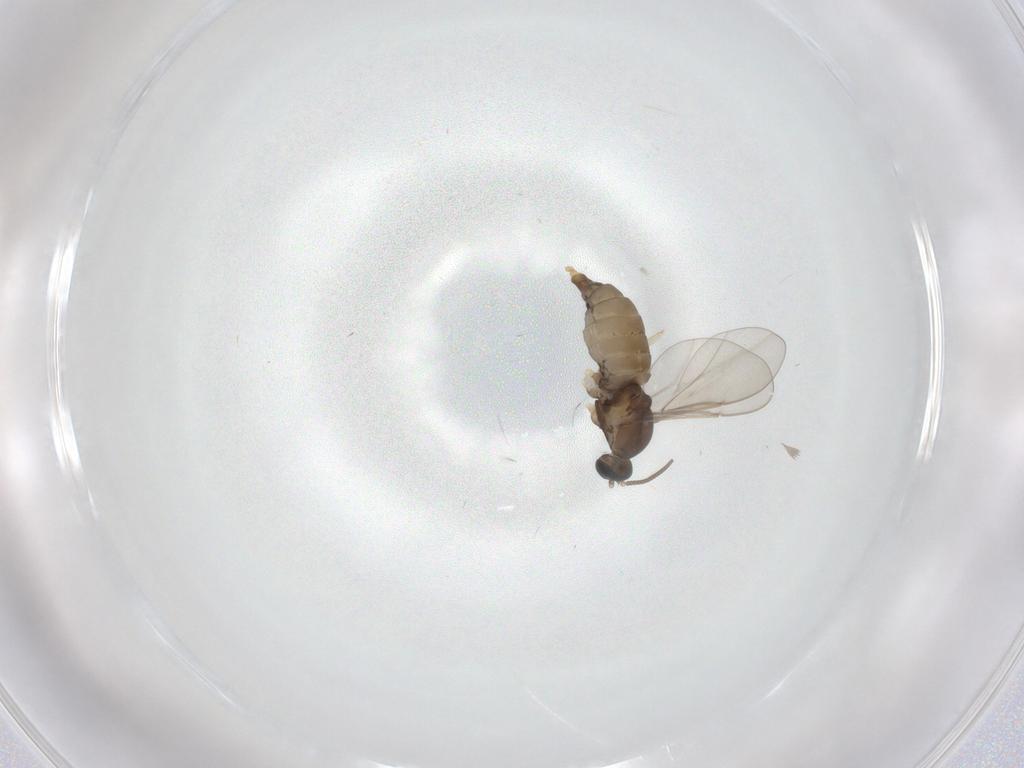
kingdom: Animalia
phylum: Arthropoda
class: Insecta
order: Diptera
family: Cecidomyiidae
